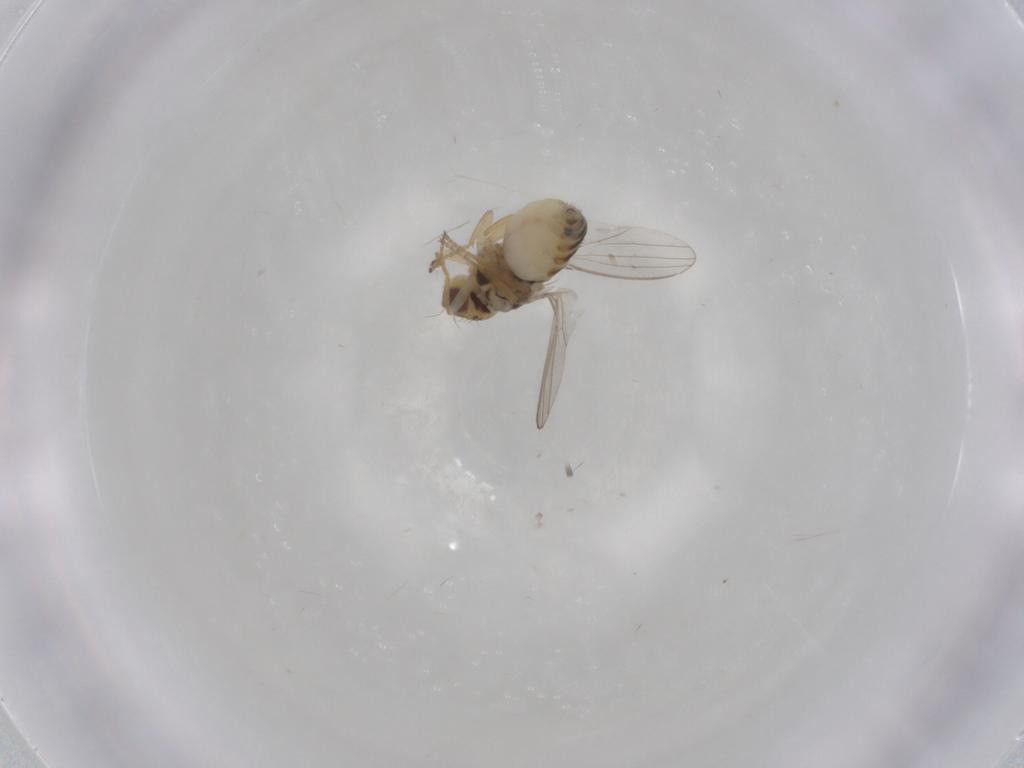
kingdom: Animalia
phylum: Arthropoda
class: Insecta
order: Diptera
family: Chyromyidae
